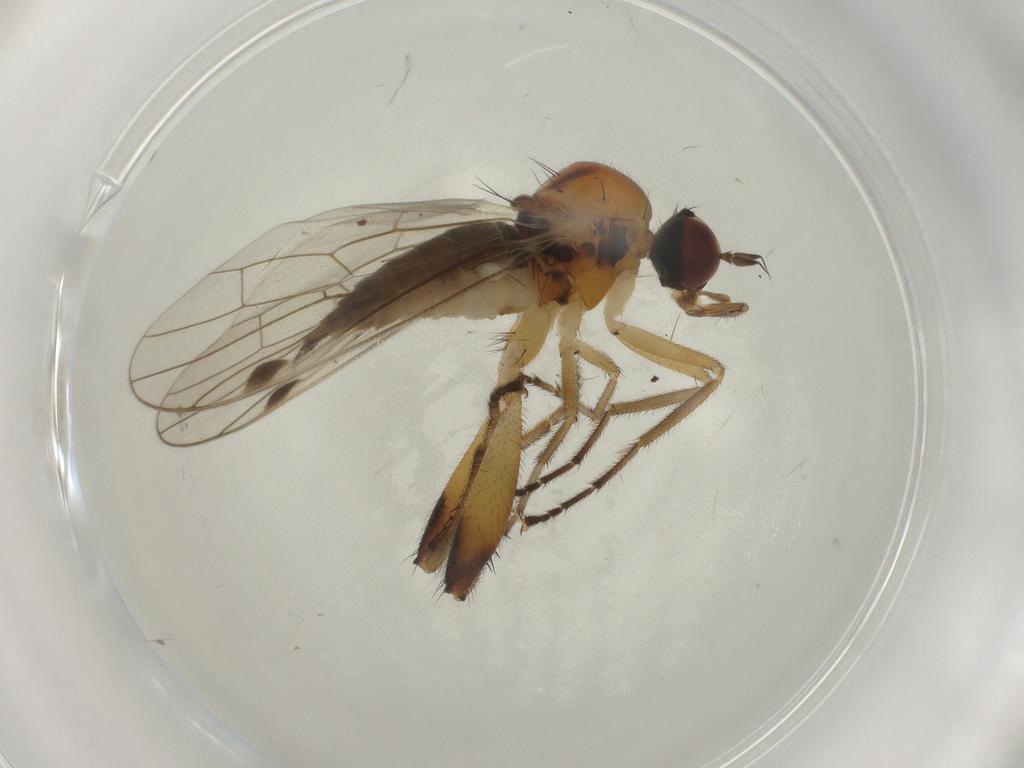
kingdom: Animalia
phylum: Arthropoda
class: Insecta
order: Diptera
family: Hybotidae
